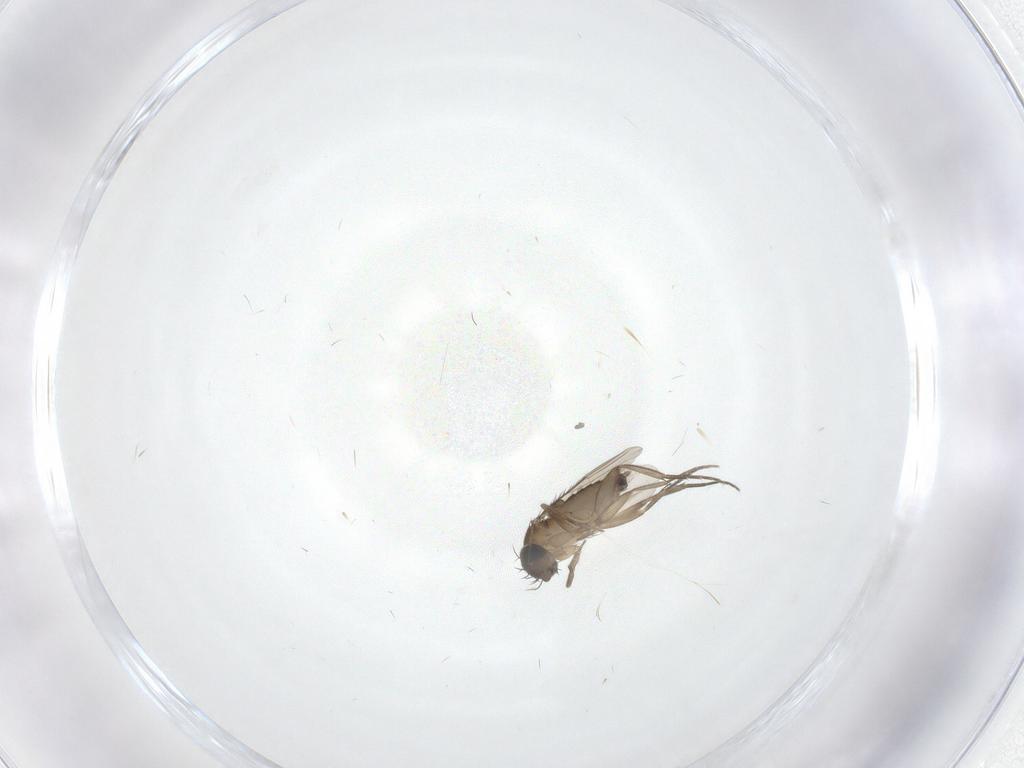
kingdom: Animalia
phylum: Arthropoda
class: Insecta
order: Diptera
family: Phoridae
